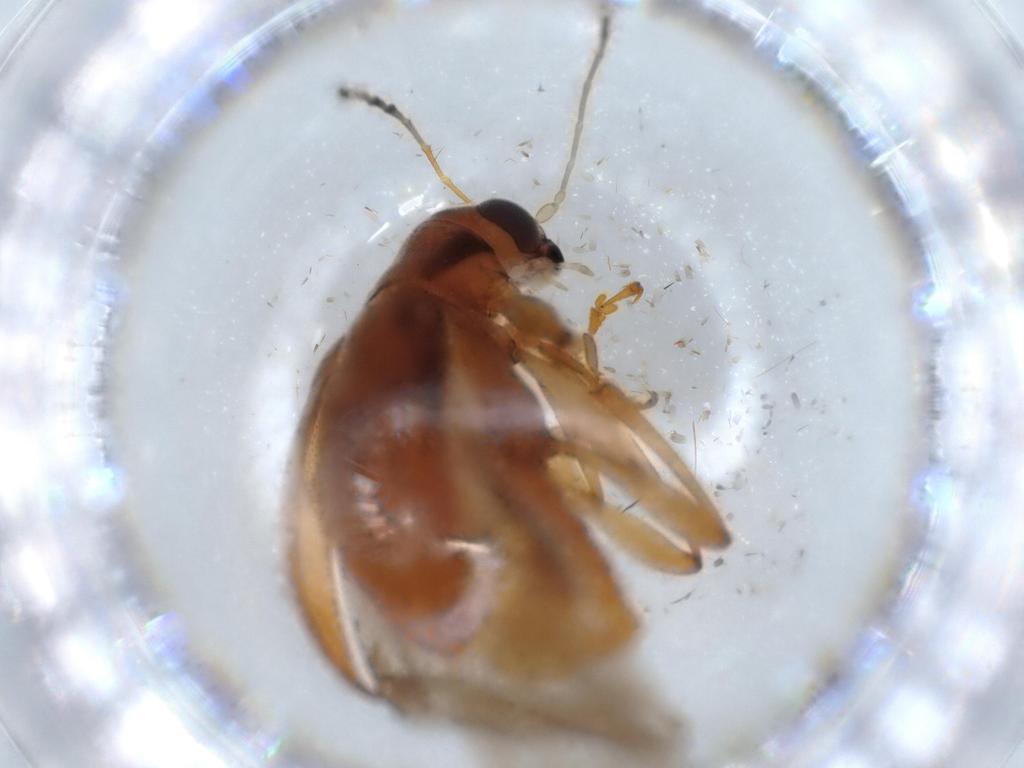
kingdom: Animalia
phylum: Arthropoda
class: Insecta
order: Coleoptera
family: Chrysomelidae
